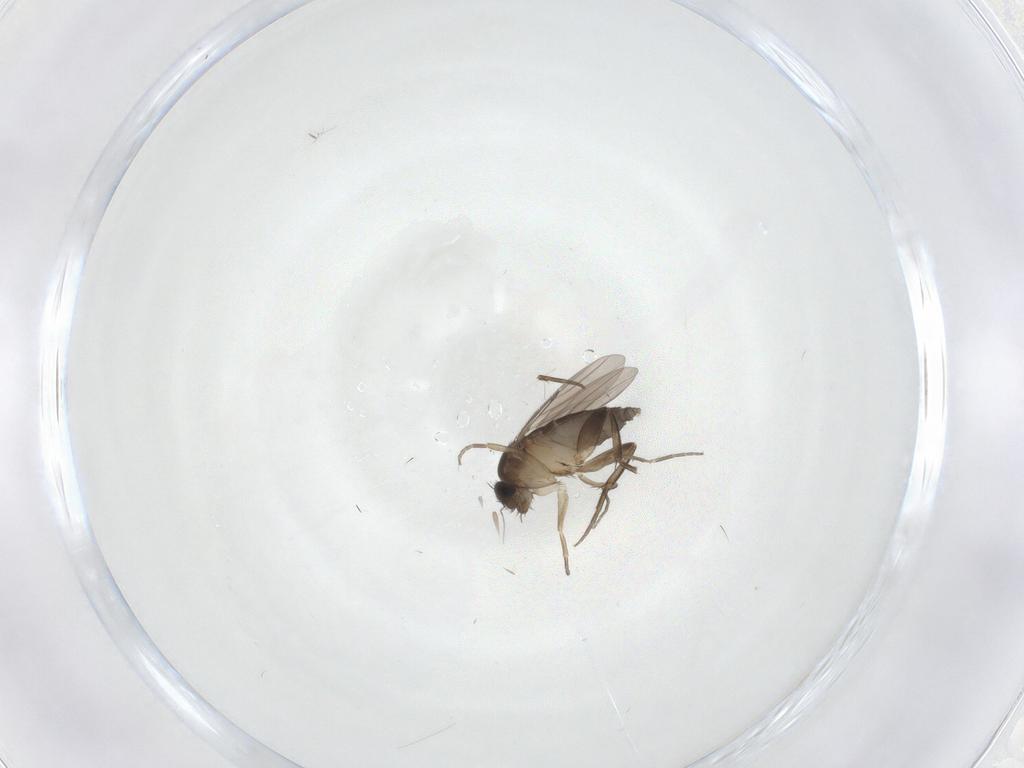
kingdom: Animalia
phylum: Arthropoda
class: Insecta
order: Diptera
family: Phoridae
